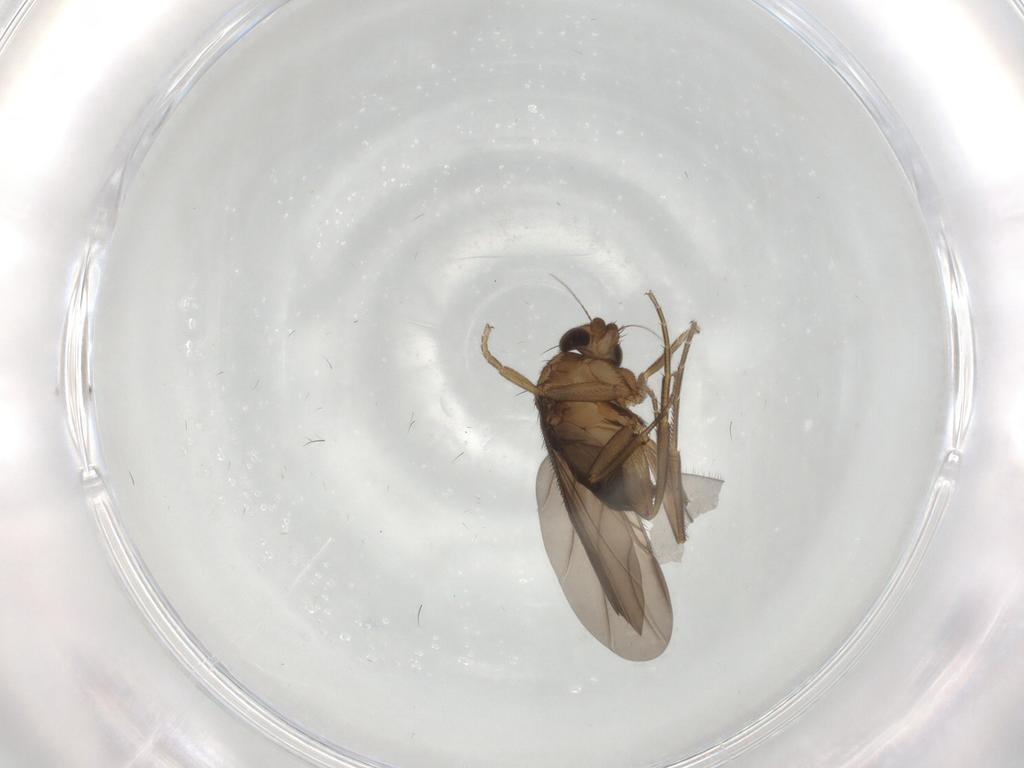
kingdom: Animalia
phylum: Arthropoda
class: Insecta
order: Diptera
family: Phoridae
